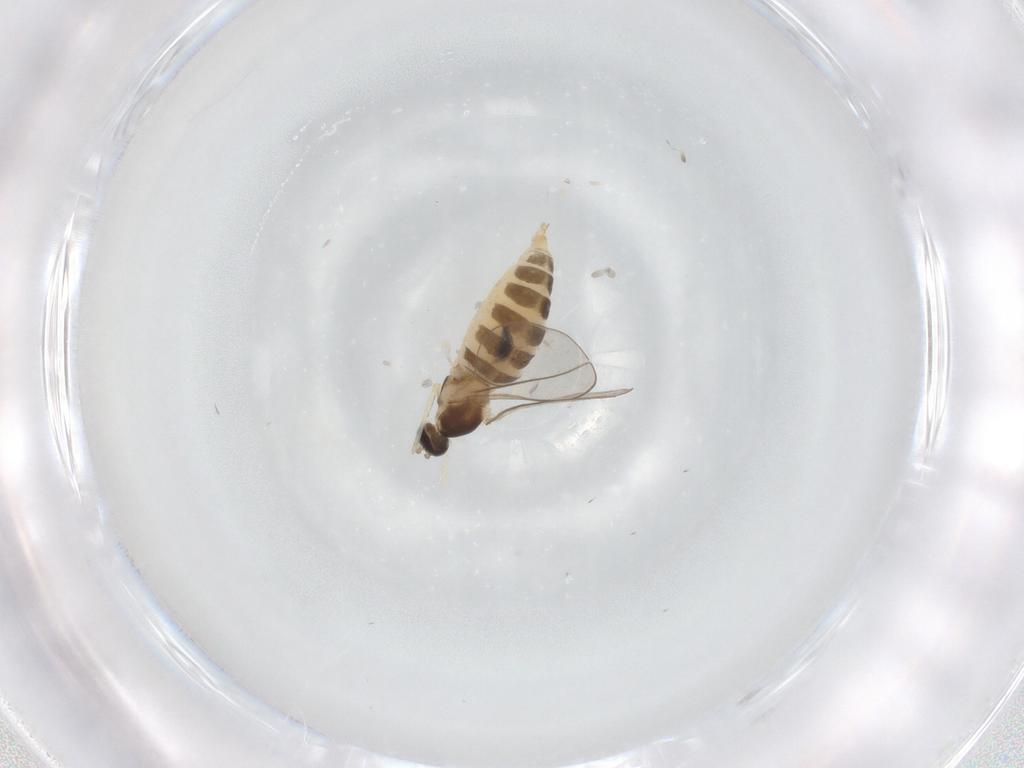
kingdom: Animalia
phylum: Arthropoda
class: Insecta
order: Diptera
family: Cecidomyiidae
